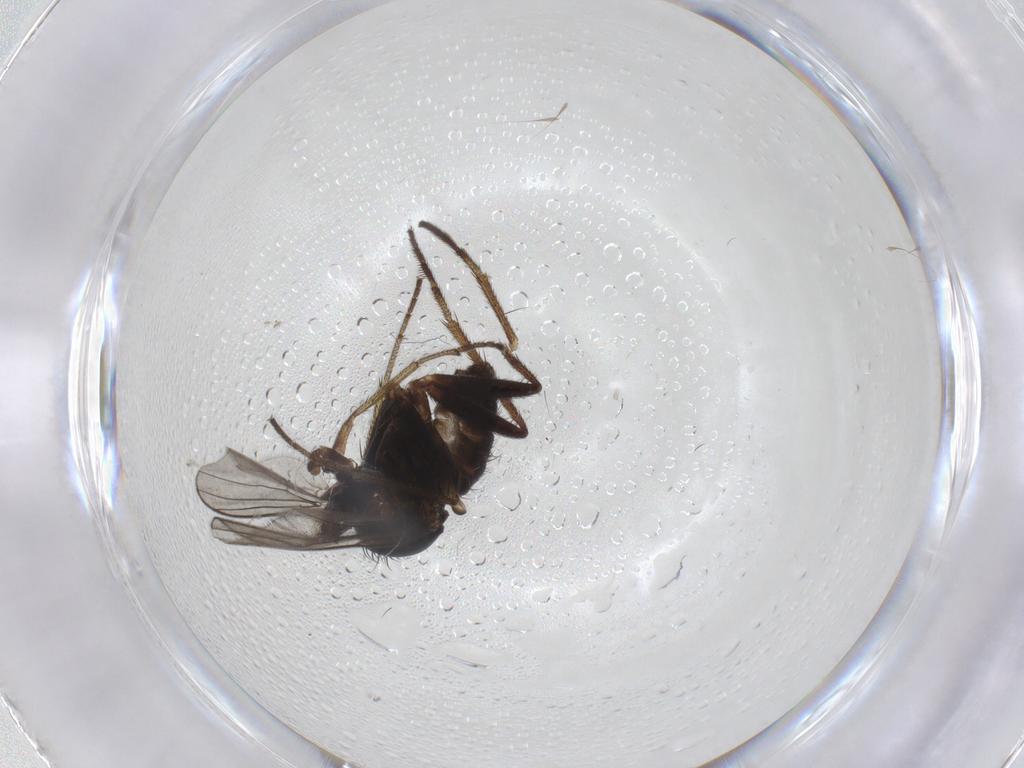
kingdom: Animalia
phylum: Arthropoda
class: Insecta
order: Diptera
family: Dolichopodidae
